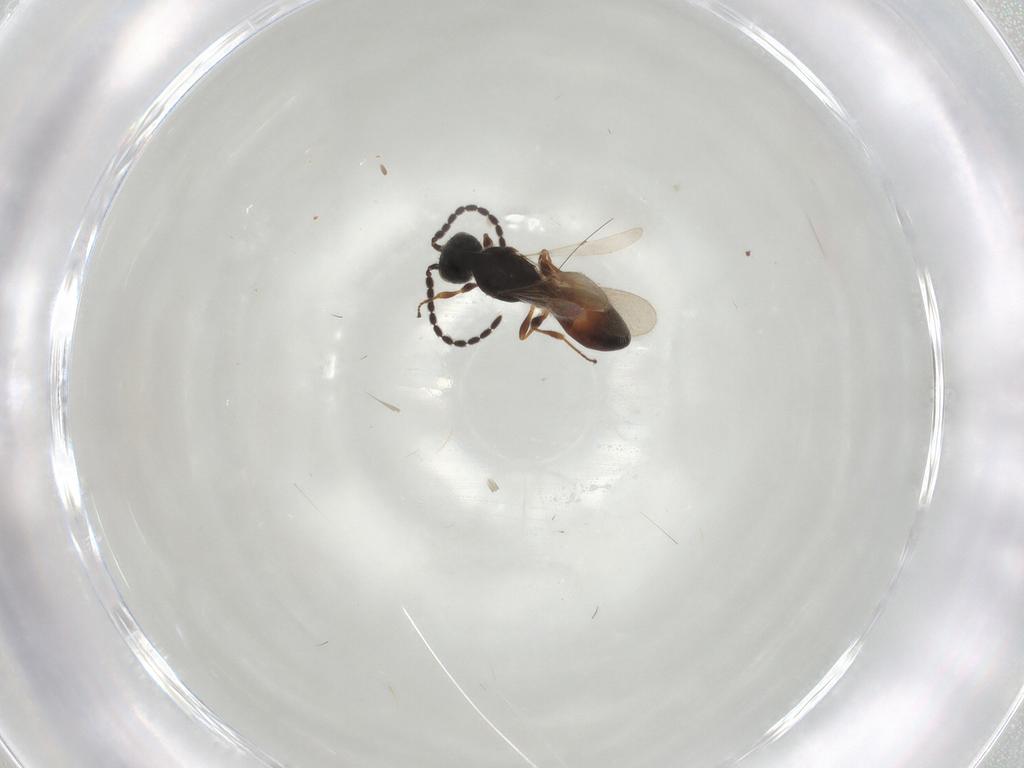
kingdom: Animalia
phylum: Arthropoda
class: Insecta
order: Hymenoptera
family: Scelionidae
